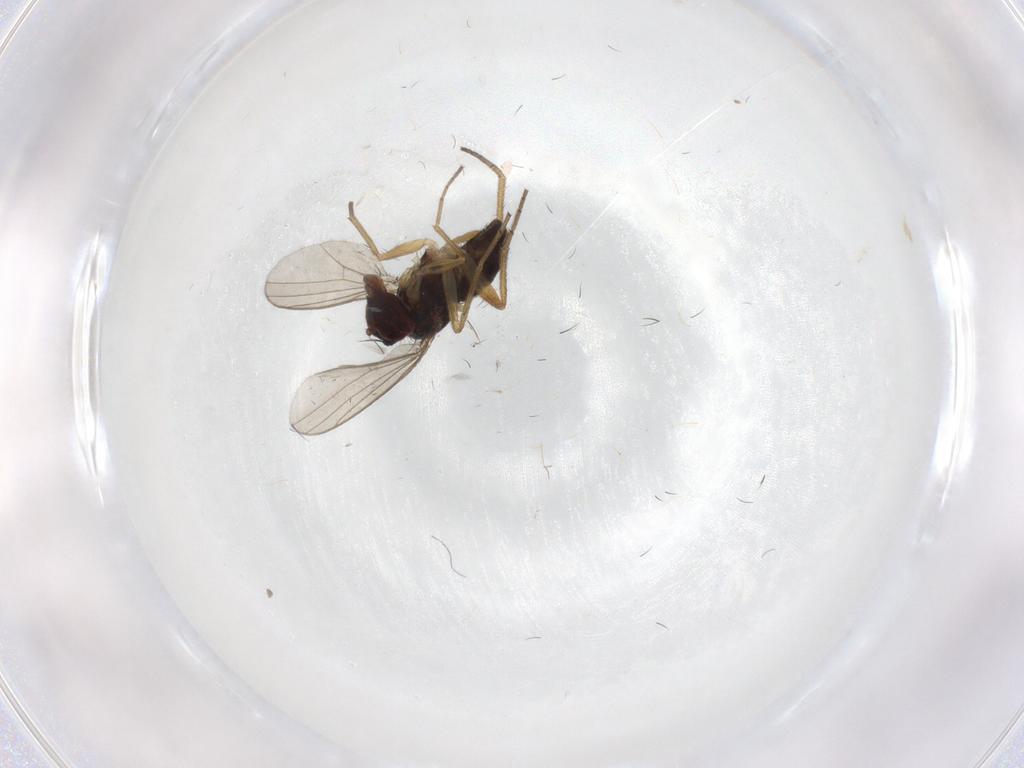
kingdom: Animalia
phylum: Arthropoda
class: Insecta
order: Diptera
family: Dolichopodidae
